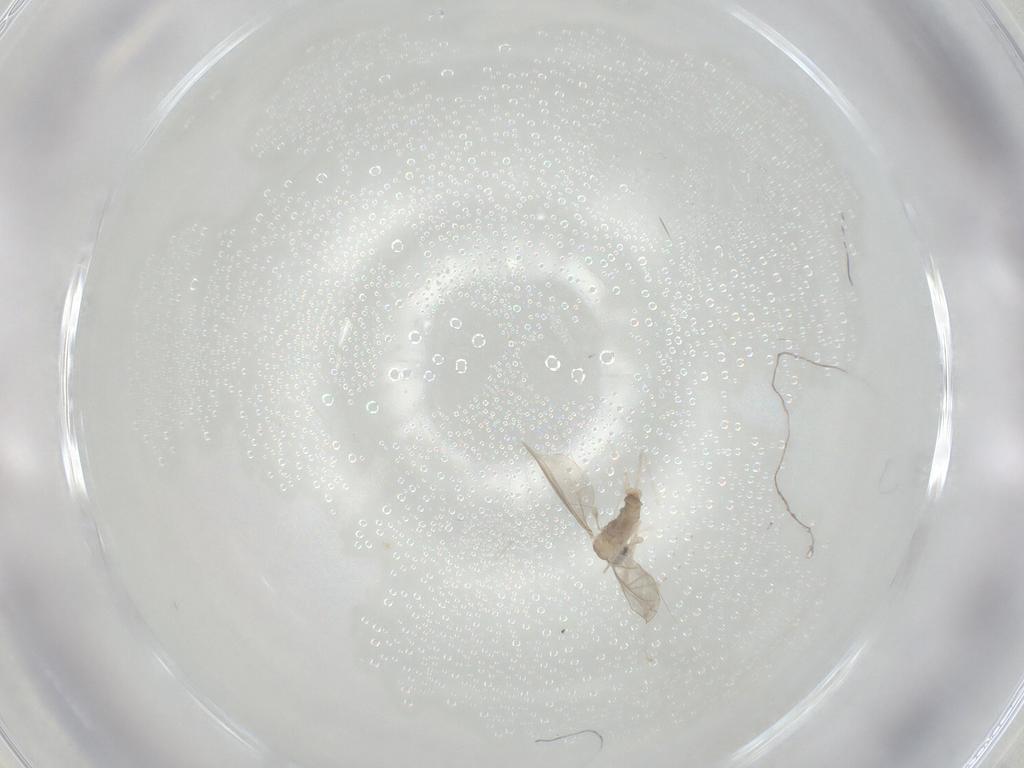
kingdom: Animalia
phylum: Arthropoda
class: Insecta
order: Diptera
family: Cecidomyiidae
